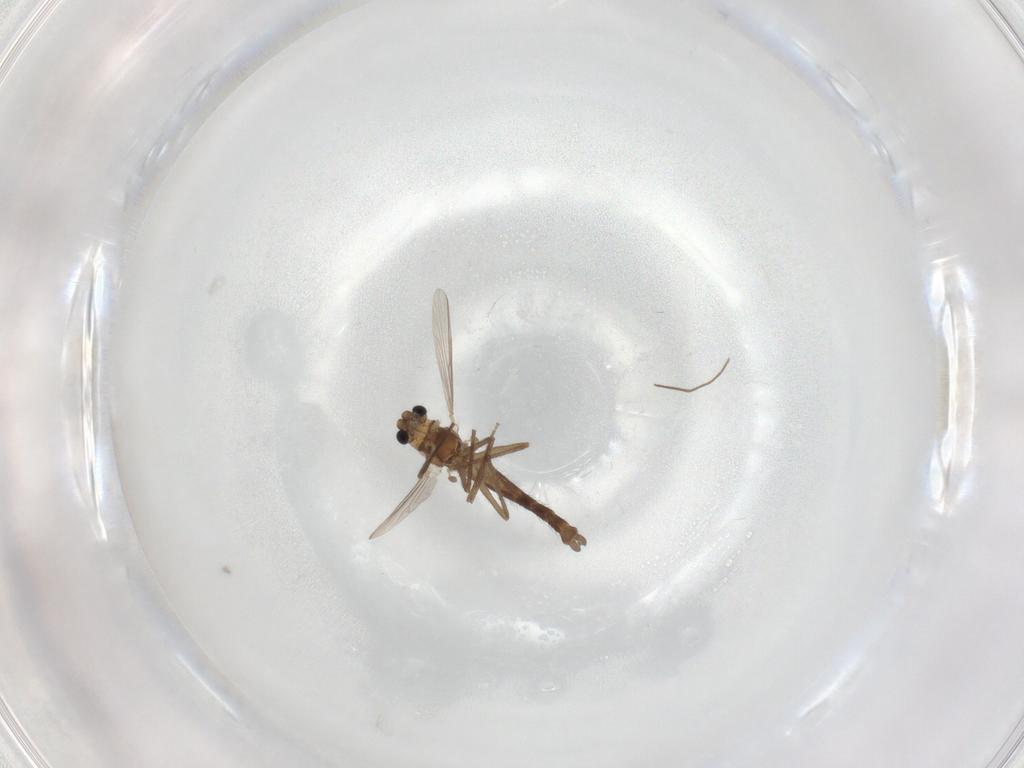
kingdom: Animalia
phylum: Arthropoda
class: Insecta
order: Diptera
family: Chironomidae
